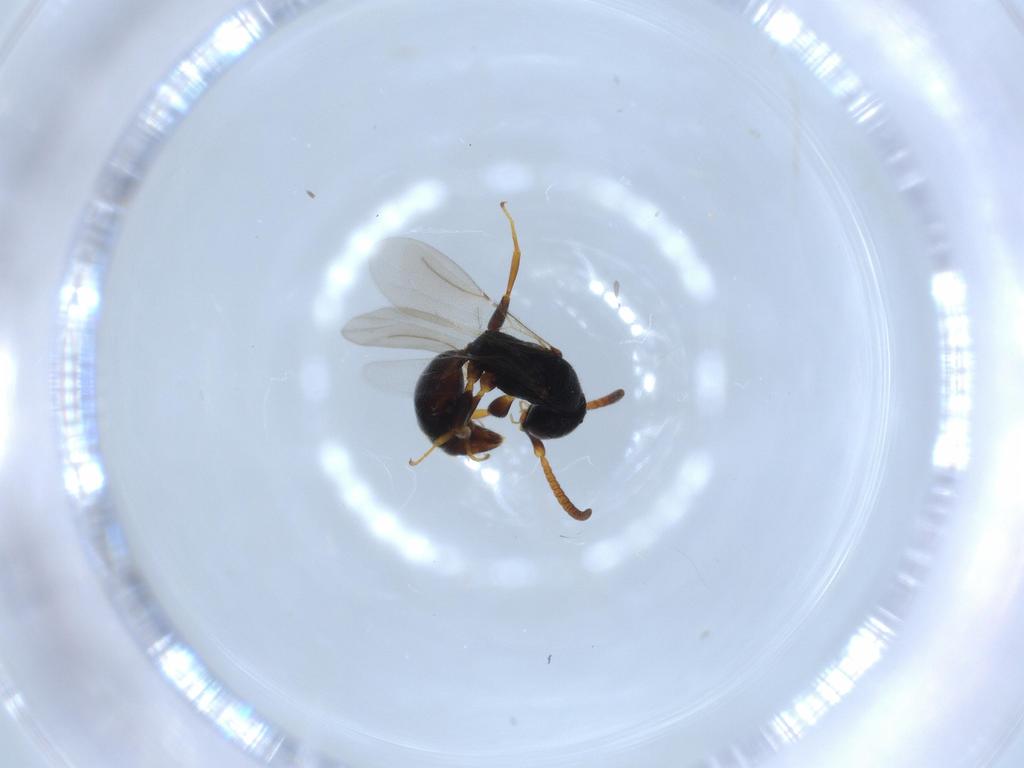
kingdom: Animalia
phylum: Arthropoda
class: Insecta
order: Hymenoptera
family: Bethylidae
